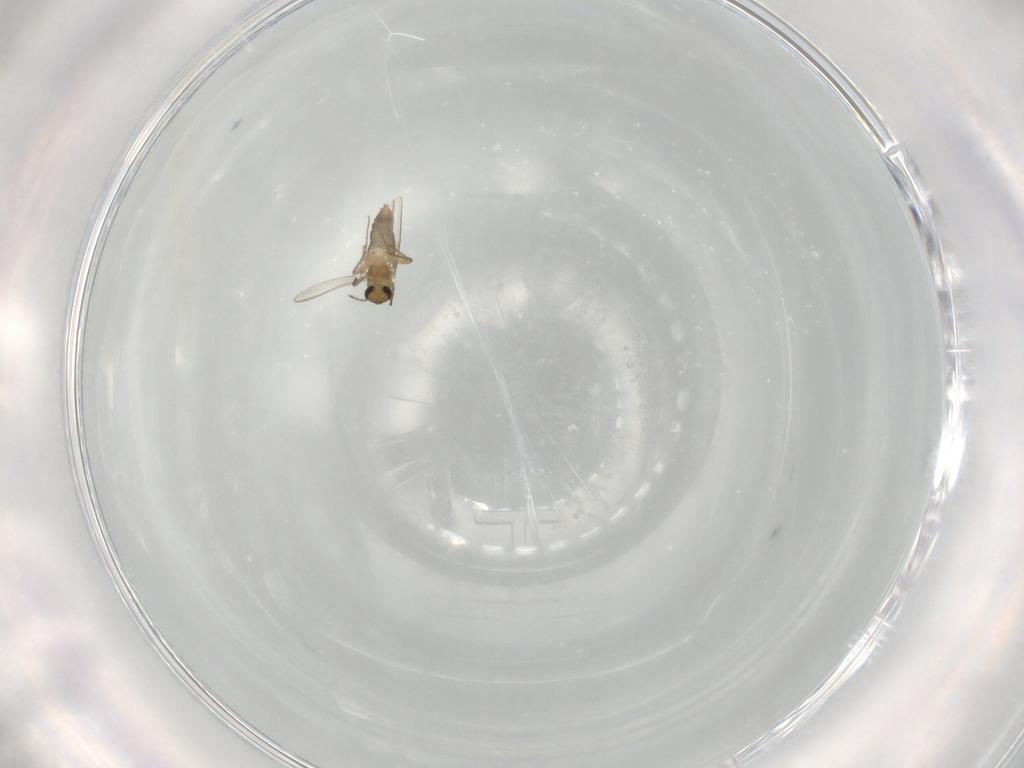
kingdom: Animalia
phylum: Arthropoda
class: Insecta
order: Diptera
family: Chironomidae
